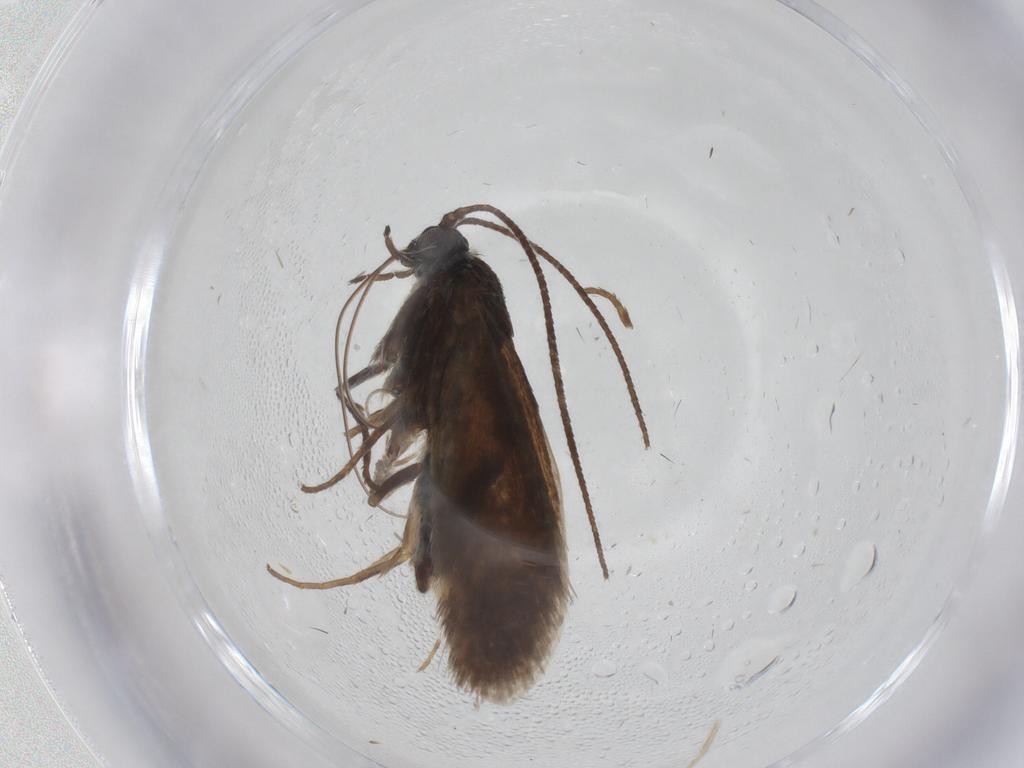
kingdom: Animalia
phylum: Arthropoda
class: Insecta
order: Lepidoptera
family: Adelidae
